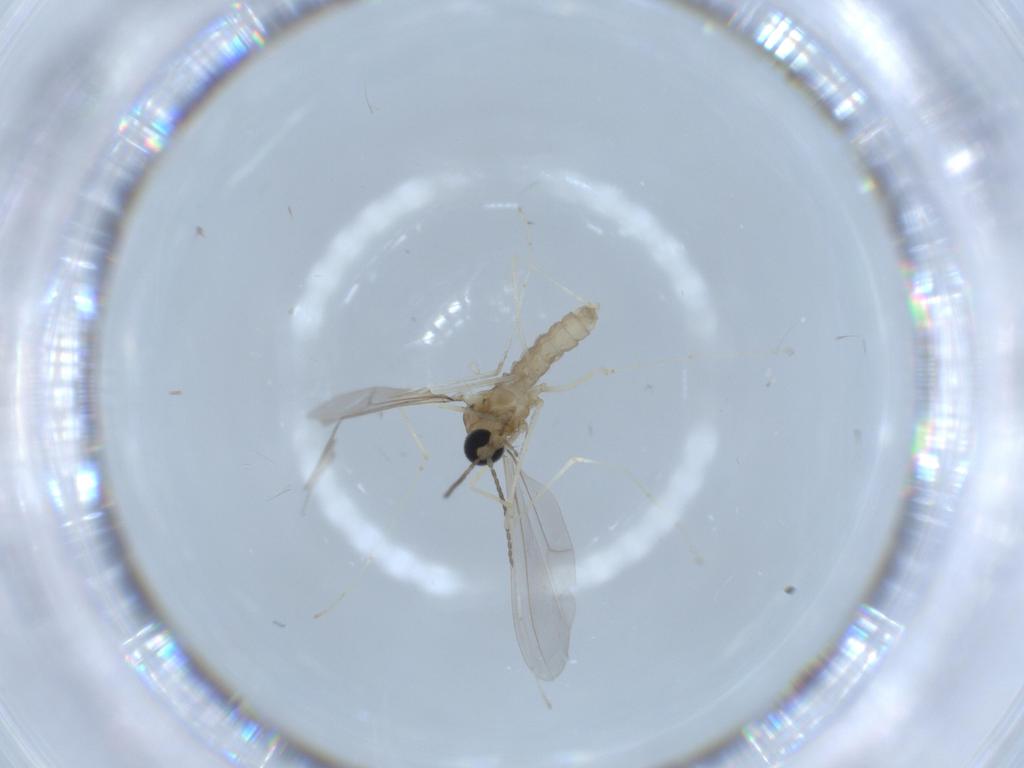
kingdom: Animalia
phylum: Arthropoda
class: Insecta
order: Diptera
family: Cecidomyiidae
